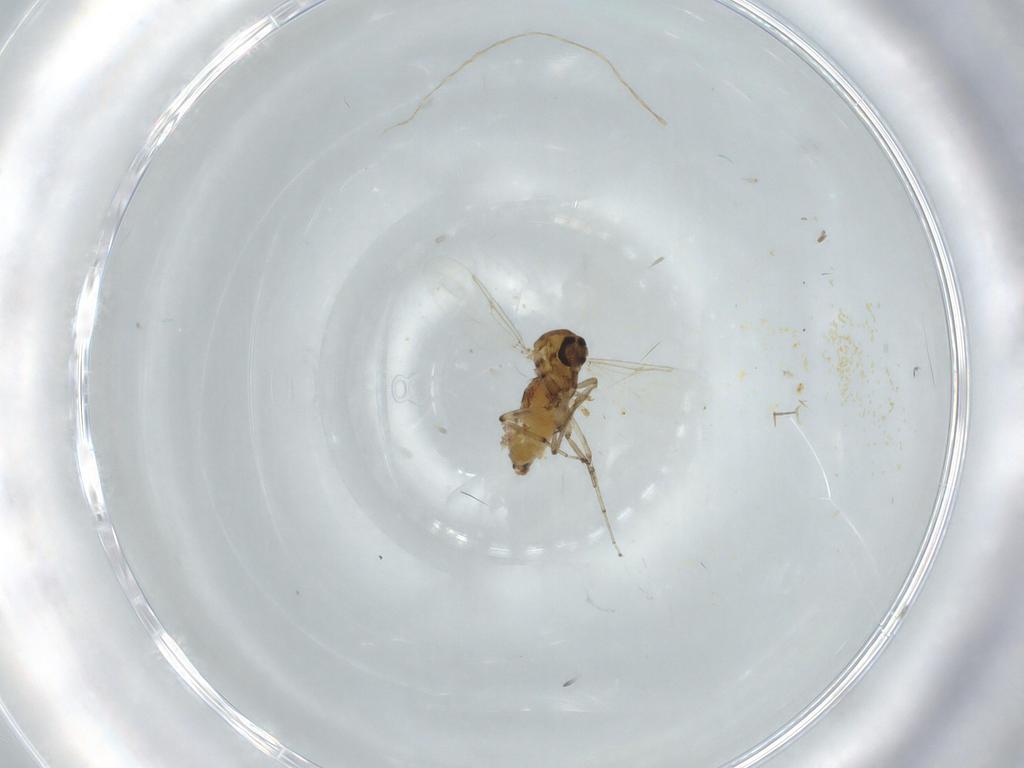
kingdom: Animalia
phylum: Arthropoda
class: Insecta
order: Diptera
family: Ceratopogonidae
